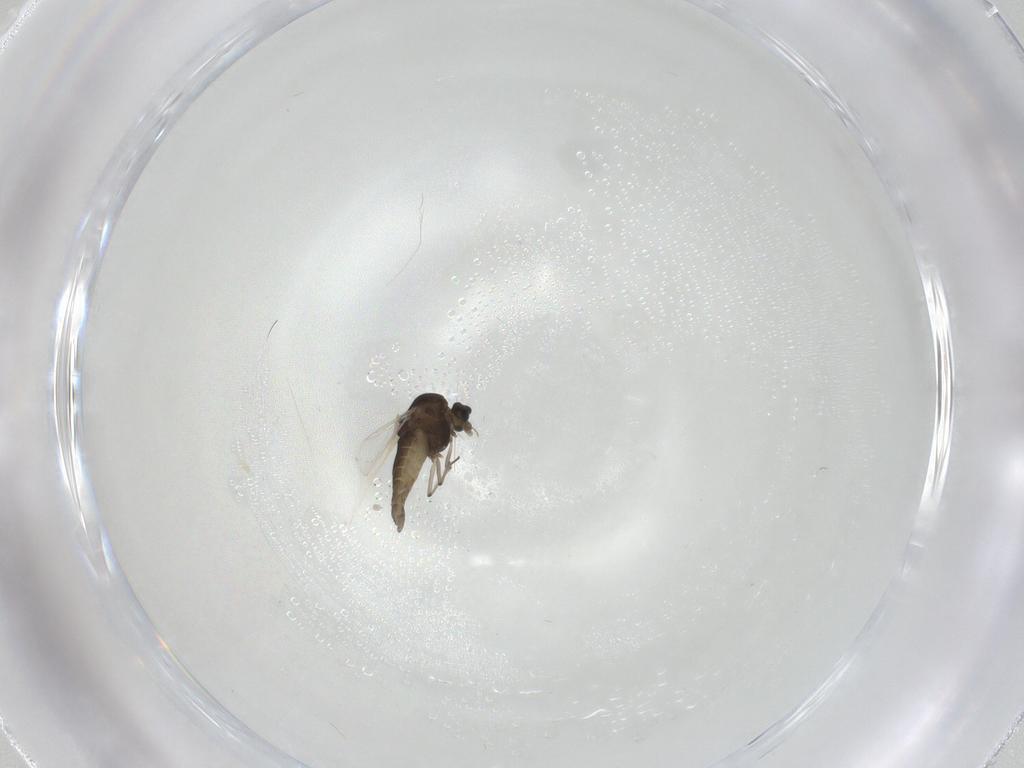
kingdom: Animalia
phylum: Arthropoda
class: Insecta
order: Diptera
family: Chironomidae
